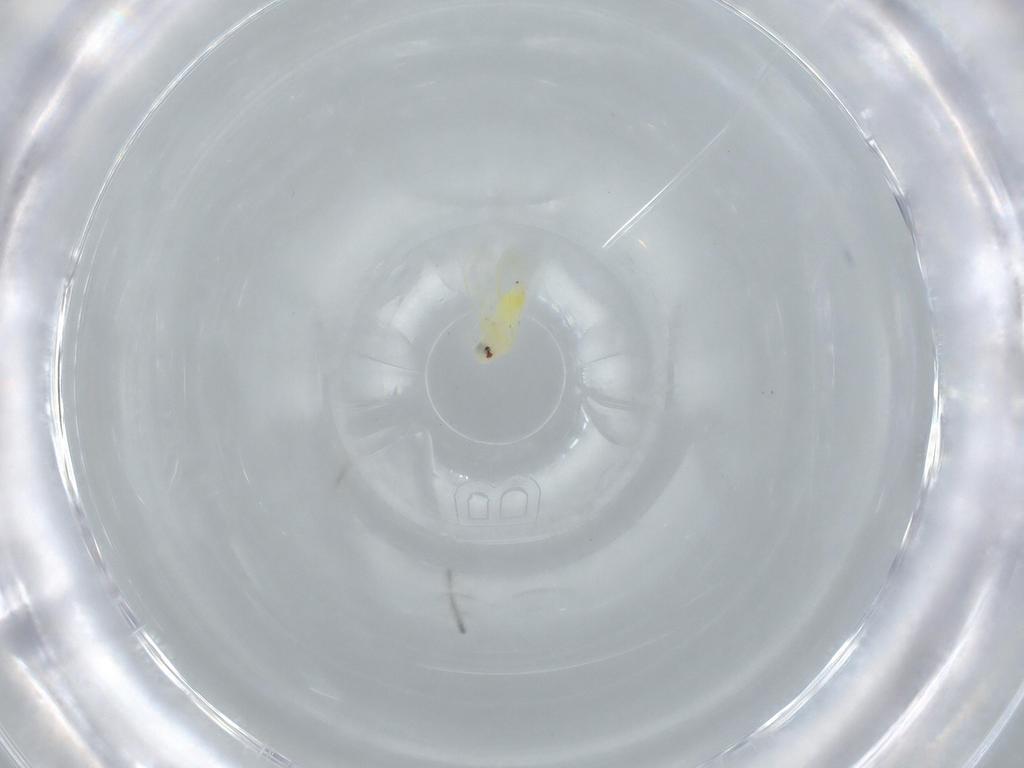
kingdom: Animalia
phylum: Arthropoda
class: Insecta
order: Hemiptera
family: Aleyrodidae
